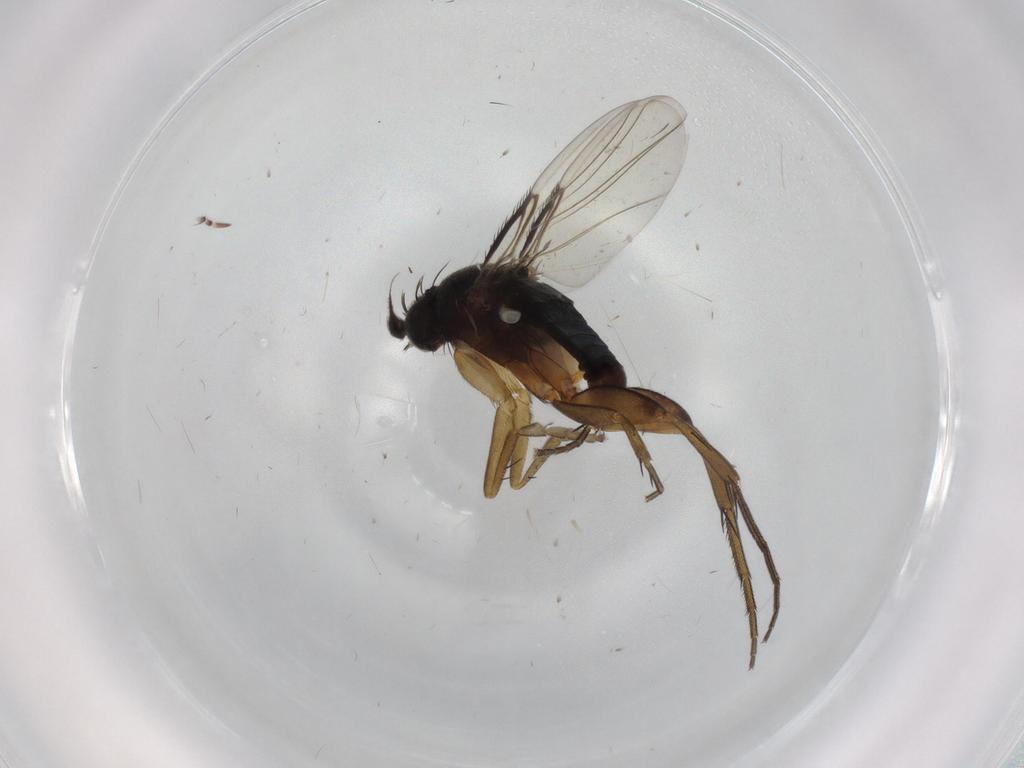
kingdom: Animalia
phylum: Arthropoda
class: Insecta
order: Diptera
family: Phoridae
